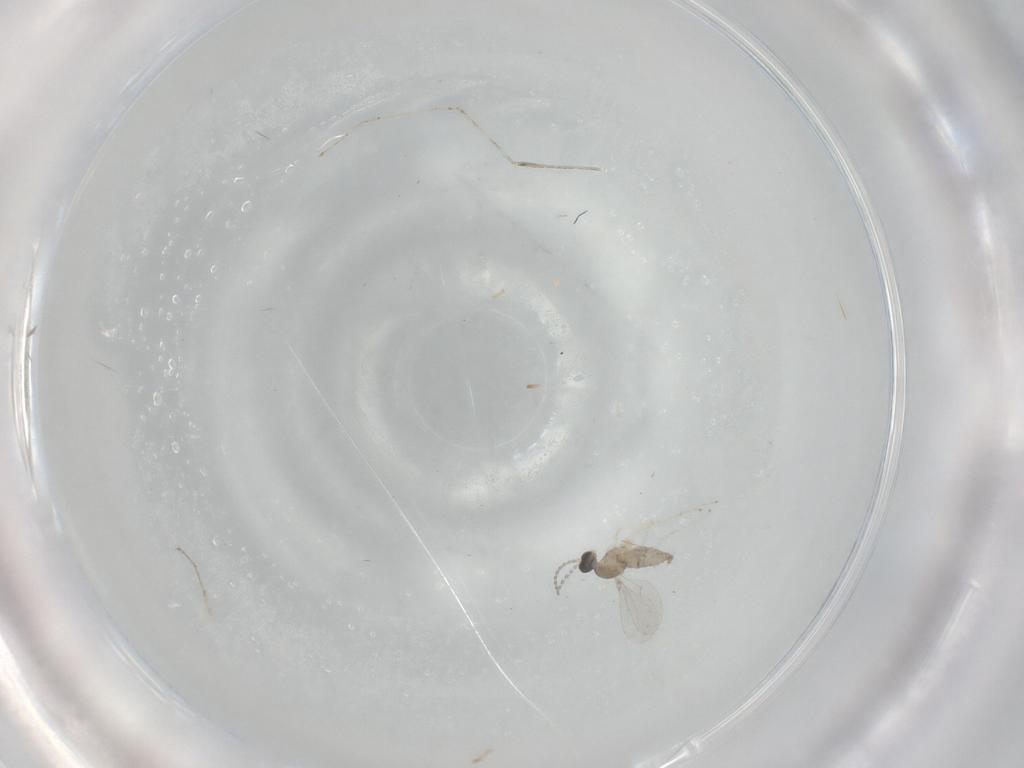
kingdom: Animalia
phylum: Arthropoda
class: Insecta
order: Diptera
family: Cecidomyiidae
